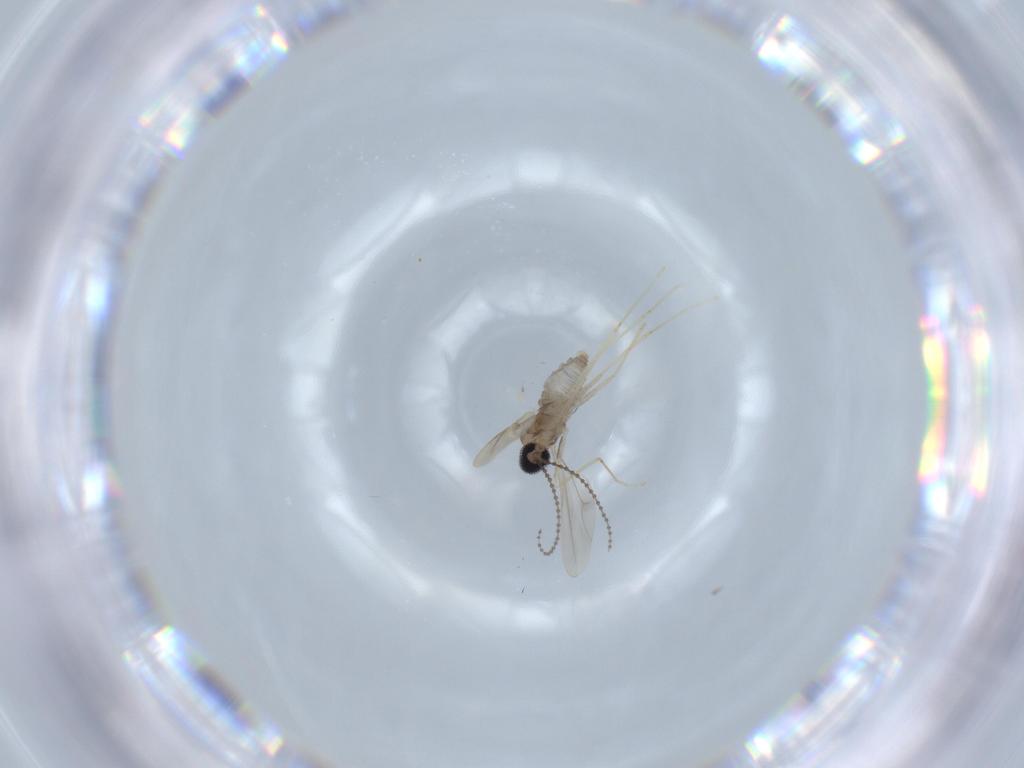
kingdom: Animalia
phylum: Arthropoda
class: Insecta
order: Diptera
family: Cecidomyiidae
